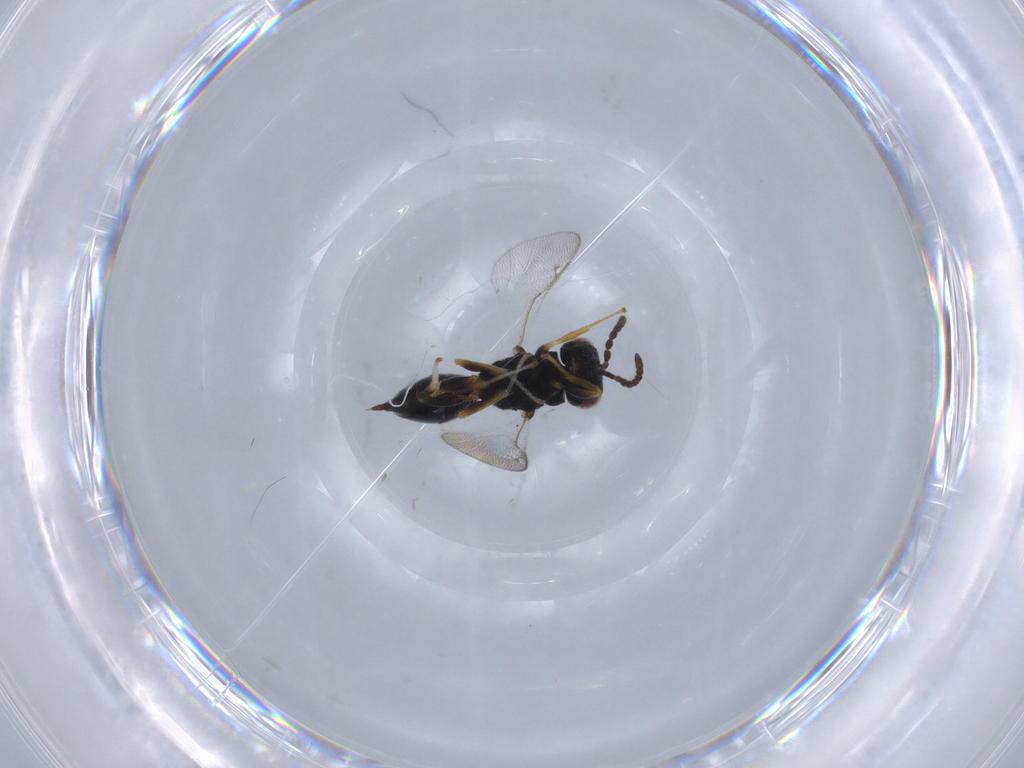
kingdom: Animalia
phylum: Arthropoda
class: Insecta
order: Hymenoptera
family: Eurytomidae
